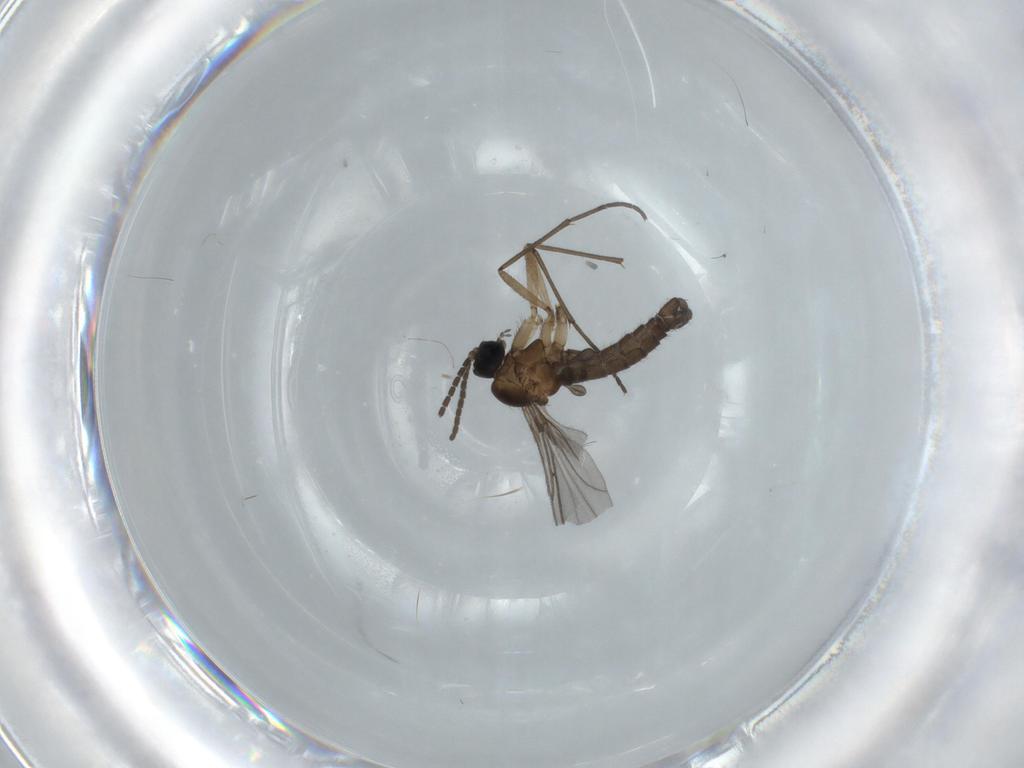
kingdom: Animalia
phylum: Arthropoda
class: Insecta
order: Diptera
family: Sciaridae
